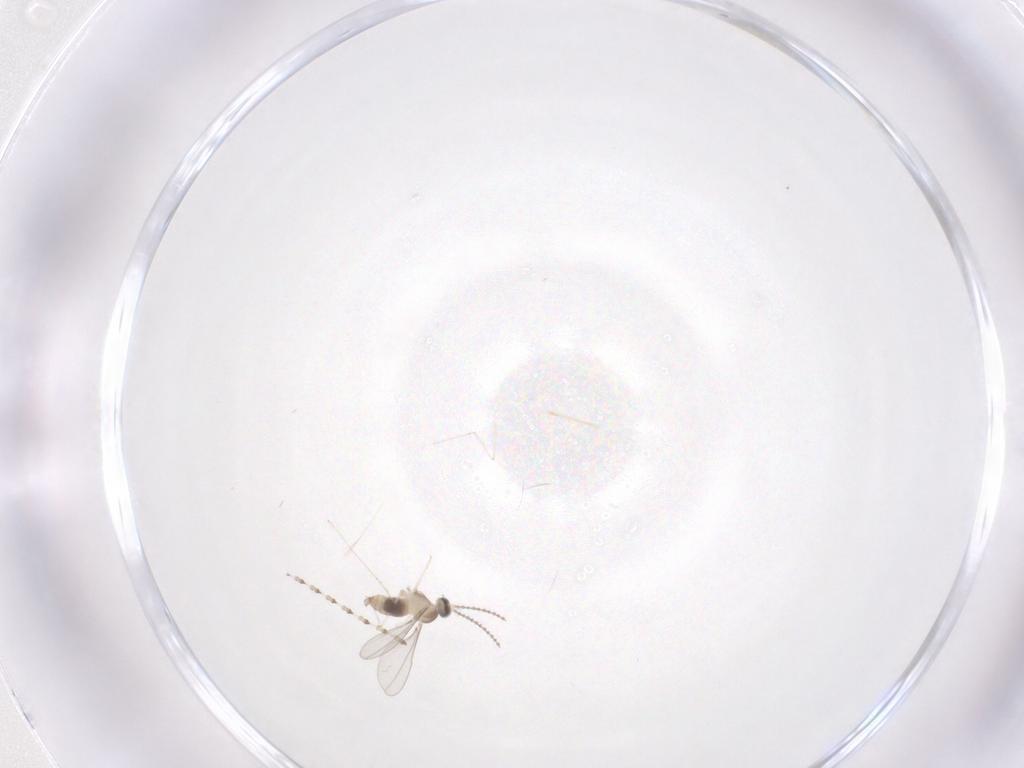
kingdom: Animalia
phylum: Arthropoda
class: Insecta
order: Diptera
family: Cecidomyiidae
